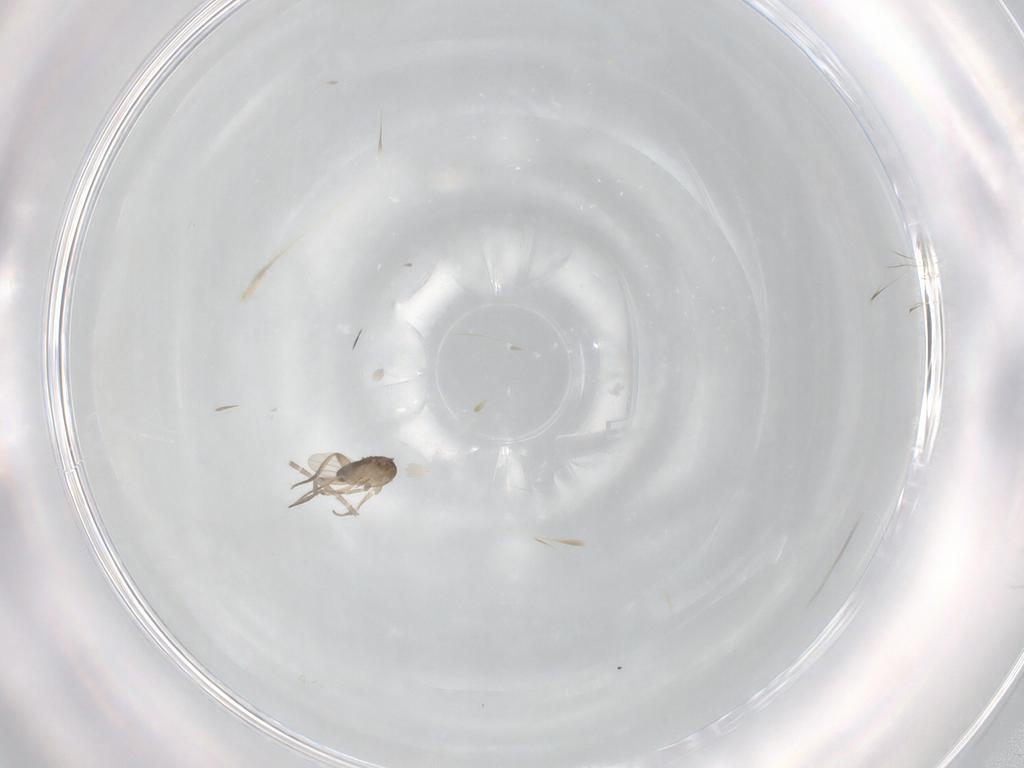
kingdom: Animalia
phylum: Arthropoda
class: Insecta
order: Diptera
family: Phoridae
